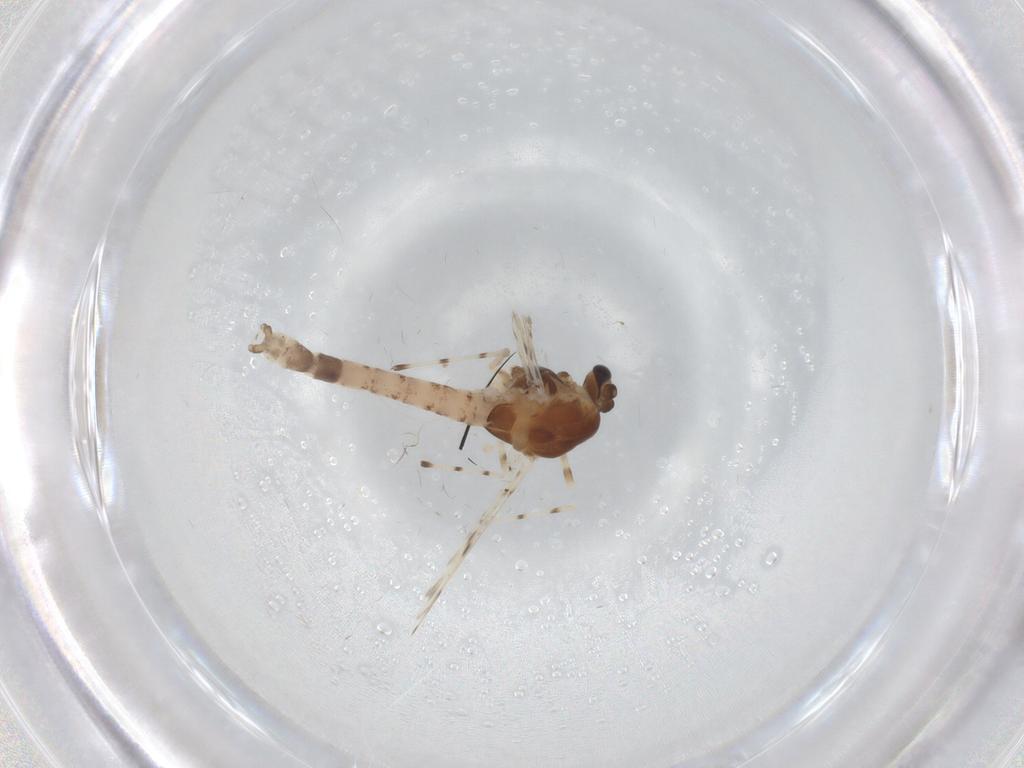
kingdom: Animalia
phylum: Arthropoda
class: Insecta
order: Diptera
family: Chironomidae
